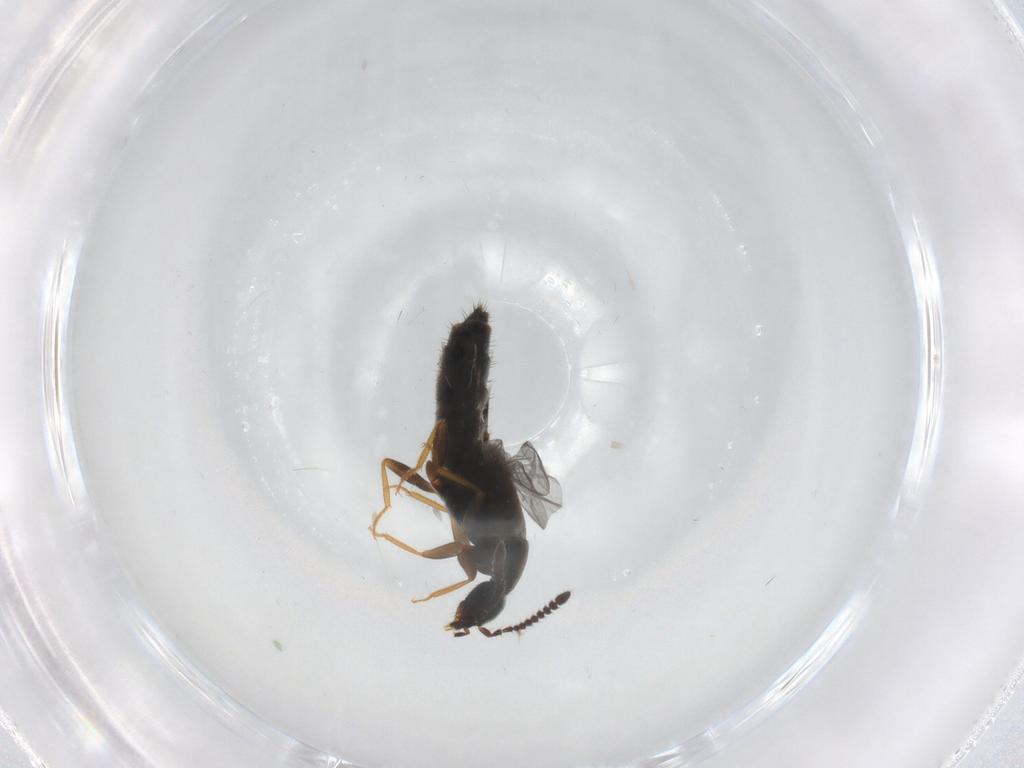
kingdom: Animalia
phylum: Arthropoda
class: Insecta
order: Coleoptera
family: Staphylinidae
